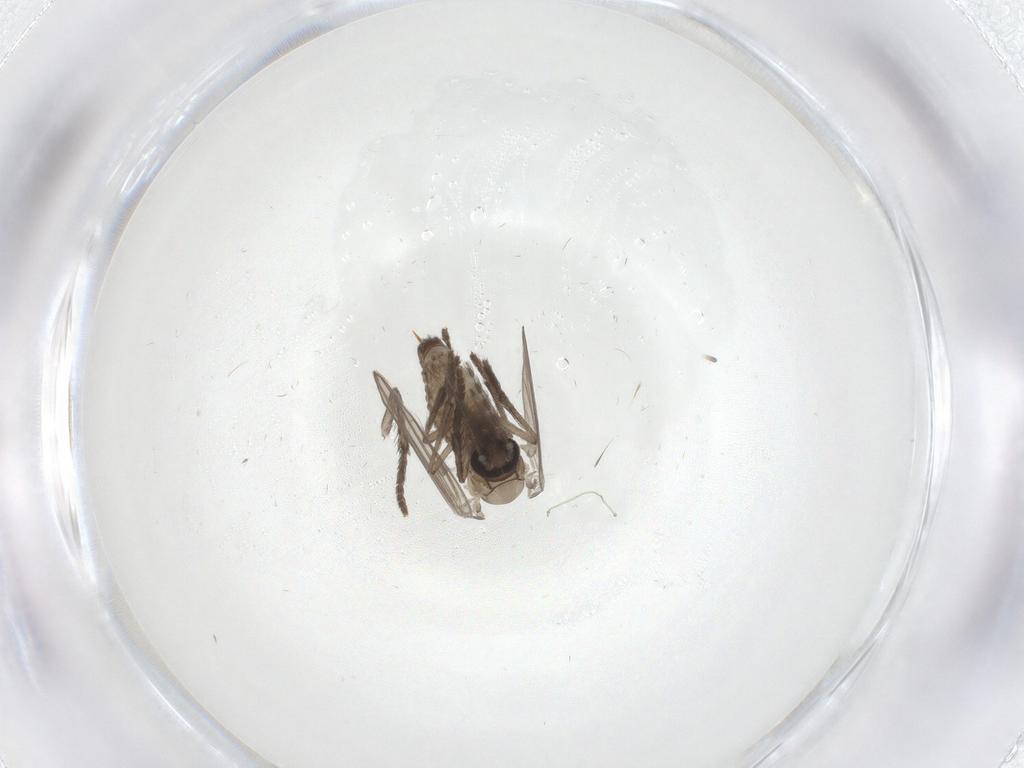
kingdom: Animalia
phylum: Arthropoda
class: Insecta
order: Diptera
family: Psychodidae
